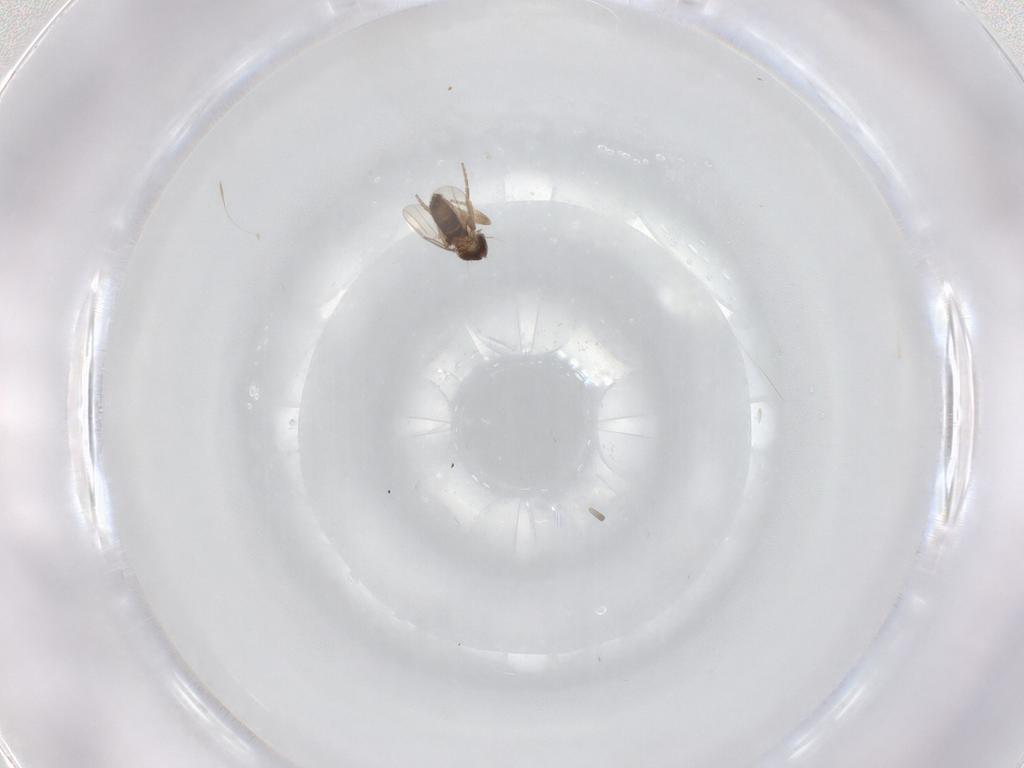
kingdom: Animalia
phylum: Arthropoda
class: Insecta
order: Diptera
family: Phoridae
